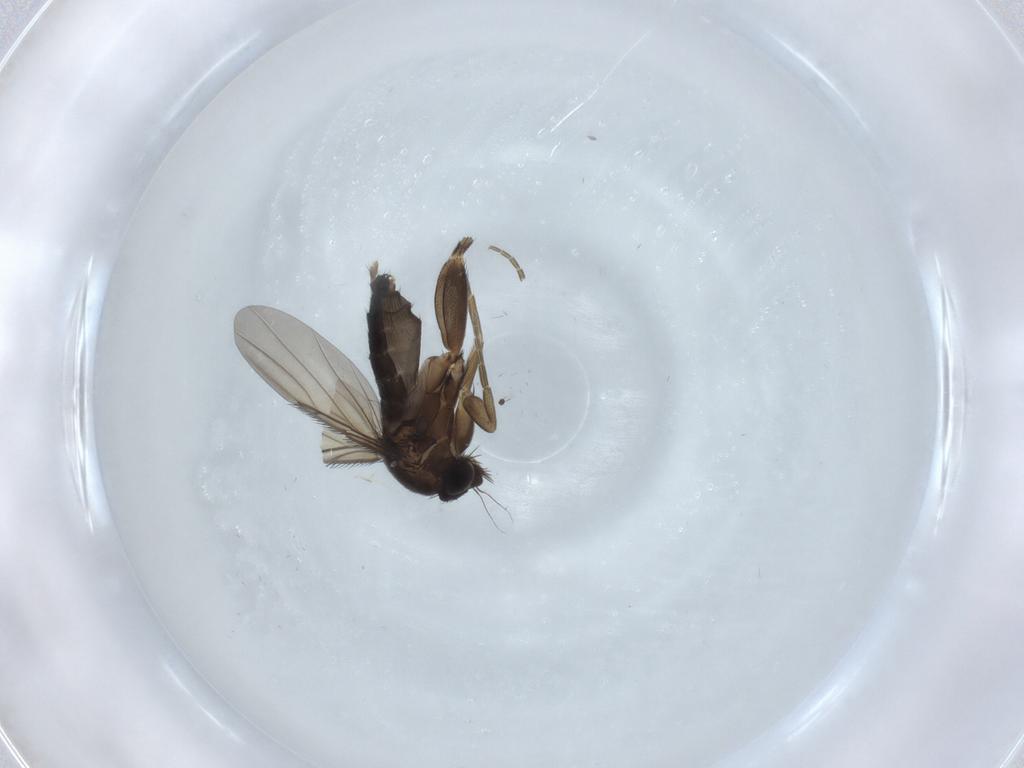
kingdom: Animalia
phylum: Arthropoda
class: Insecta
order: Diptera
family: Phoridae
